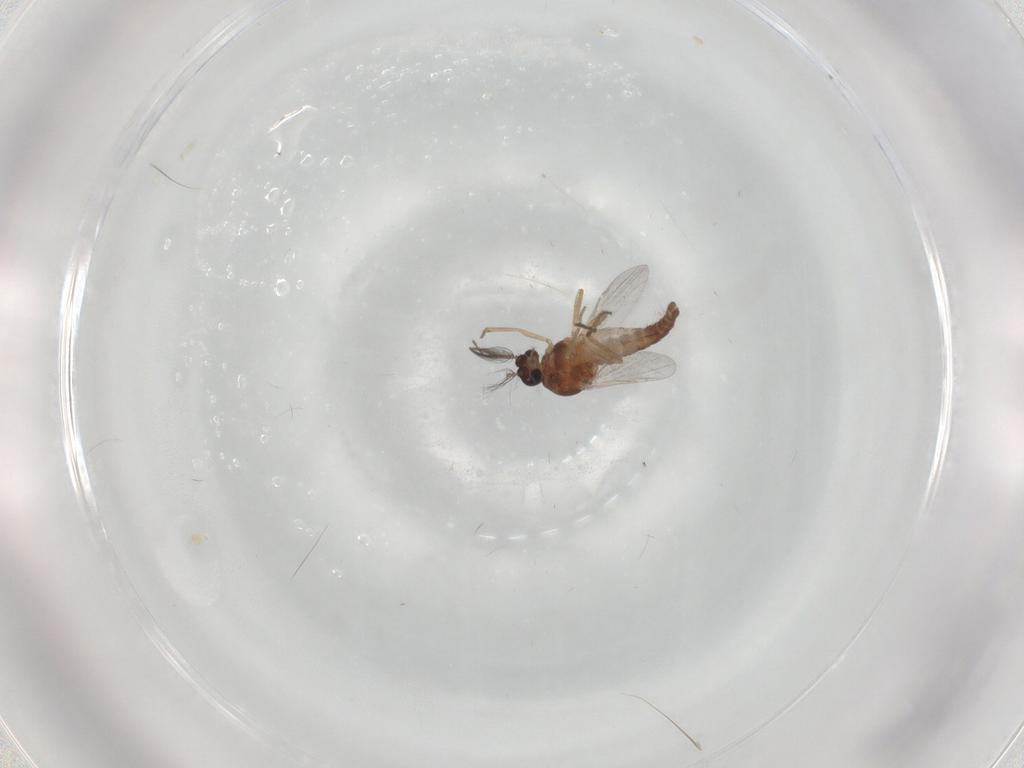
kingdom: Animalia
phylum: Arthropoda
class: Insecta
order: Diptera
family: Ceratopogonidae
